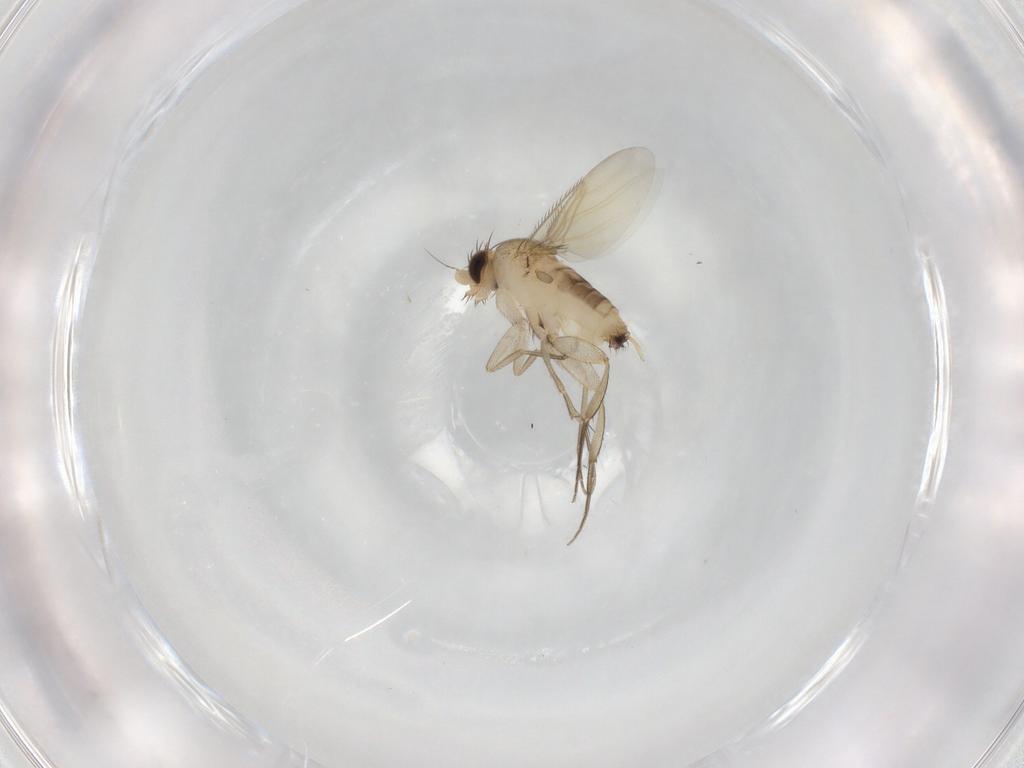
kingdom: Animalia
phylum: Arthropoda
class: Insecta
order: Diptera
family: Phoridae
